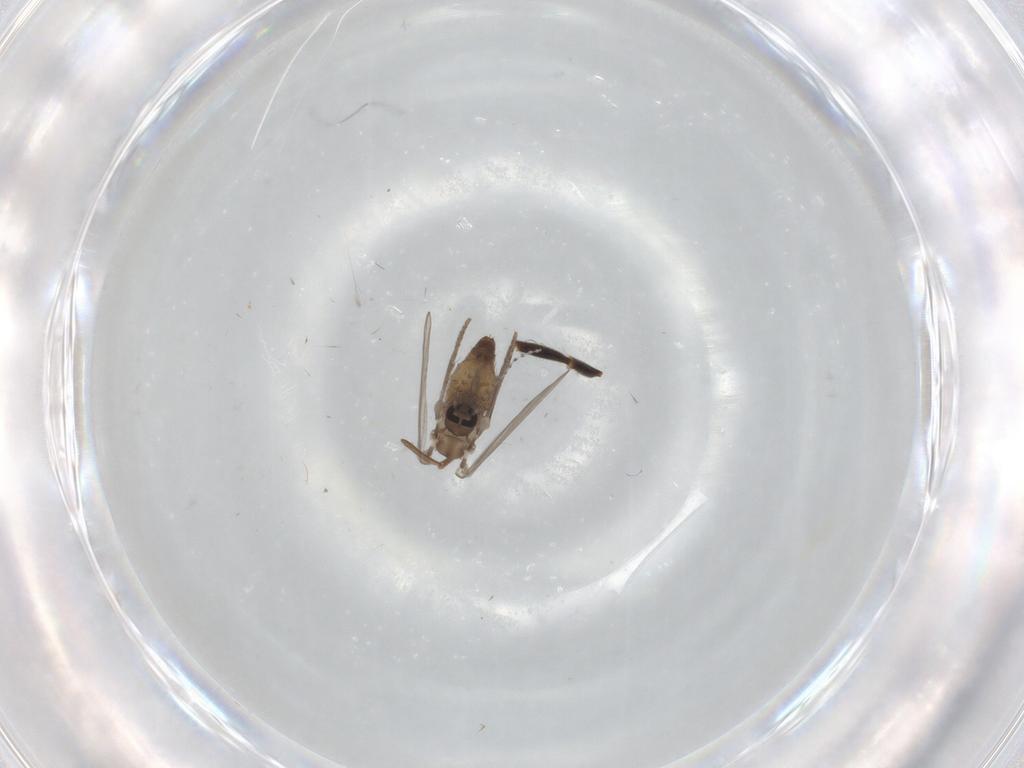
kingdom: Animalia
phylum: Arthropoda
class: Insecta
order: Diptera
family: Psychodidae
